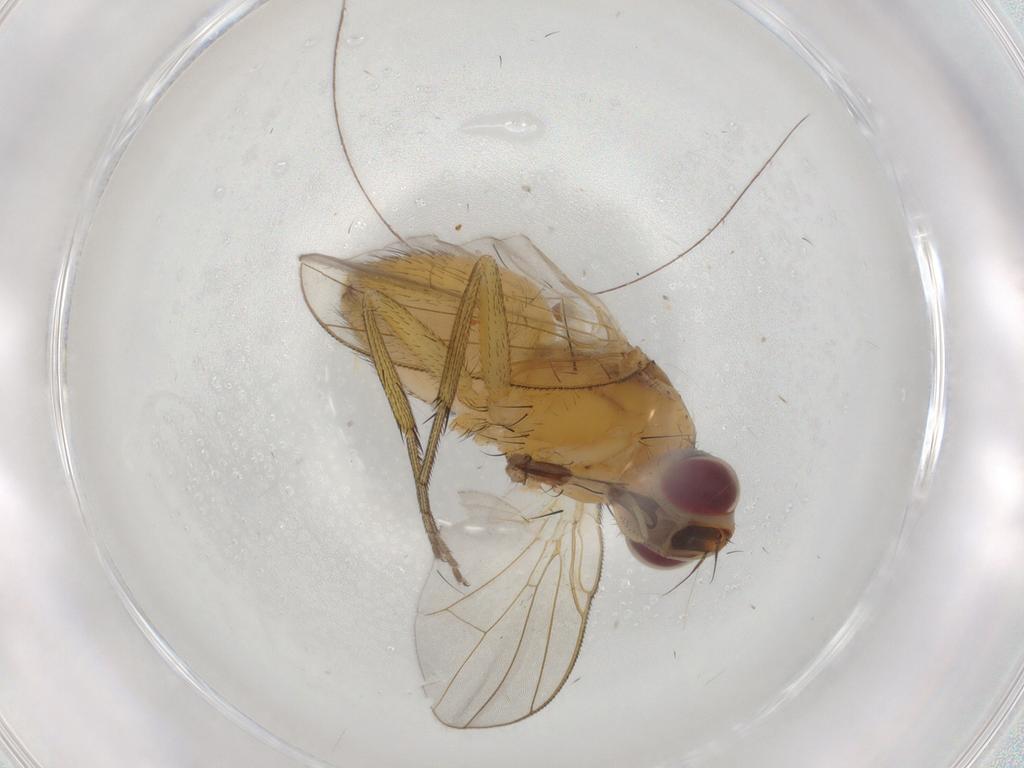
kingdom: Animalia
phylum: Arthropoda
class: Insecta
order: Diptera
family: Muscidae
